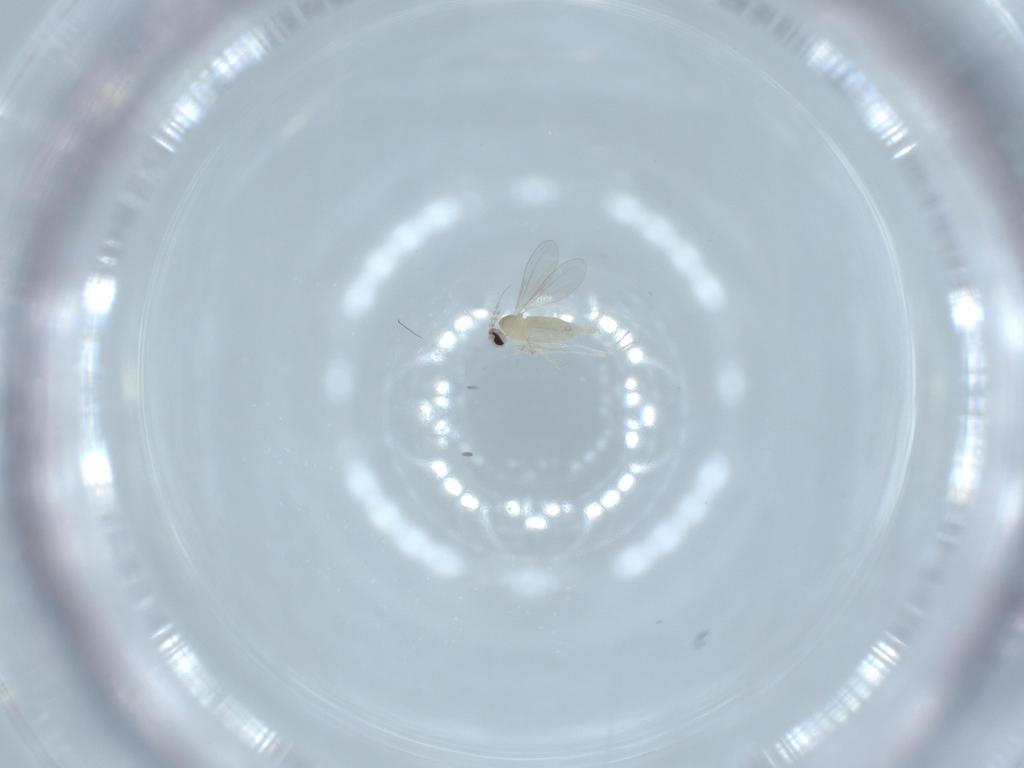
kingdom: Animalia
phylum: Arthropoda
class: Insecta
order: Diptera
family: Cecidomyiidae
